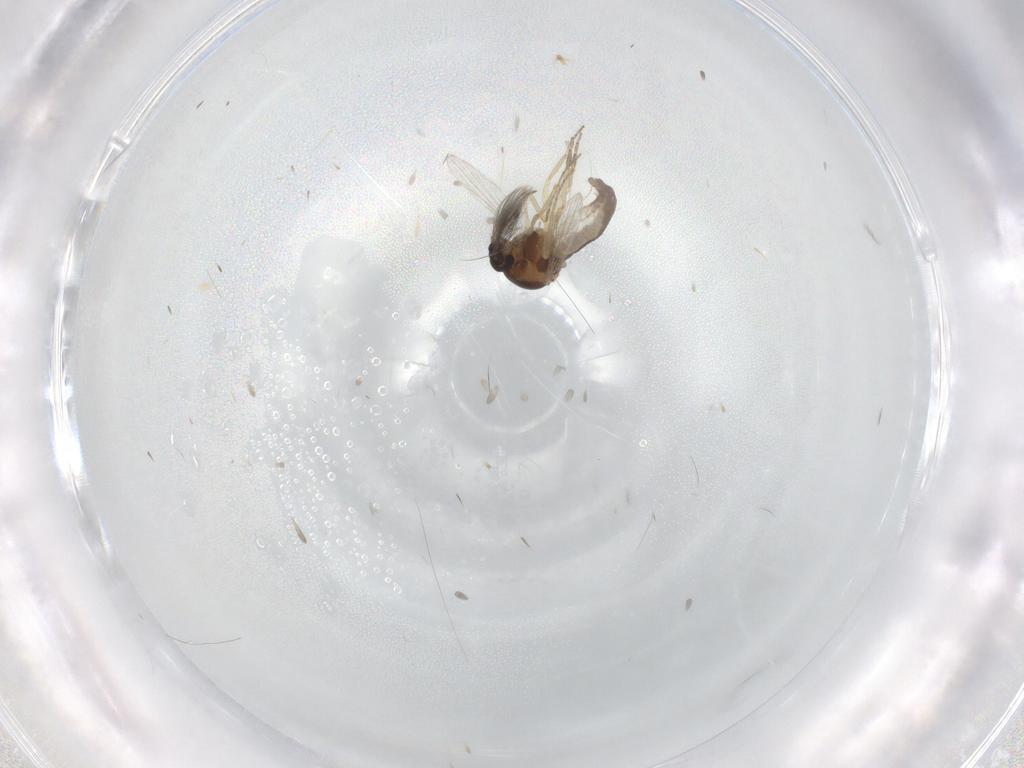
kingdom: Animalia
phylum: Arthropoda
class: Insecta
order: Diptera
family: Ceratopogonidae
